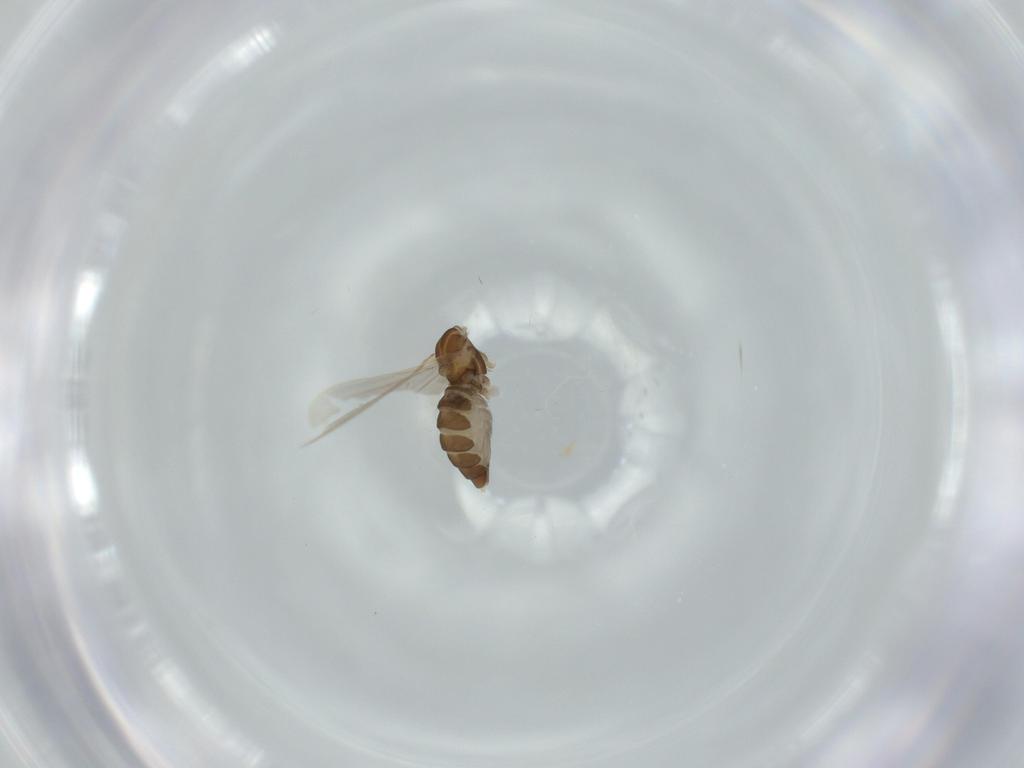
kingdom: Animalia
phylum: Arthropoda
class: Insecta
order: Diptera
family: Cecidomyiidae
